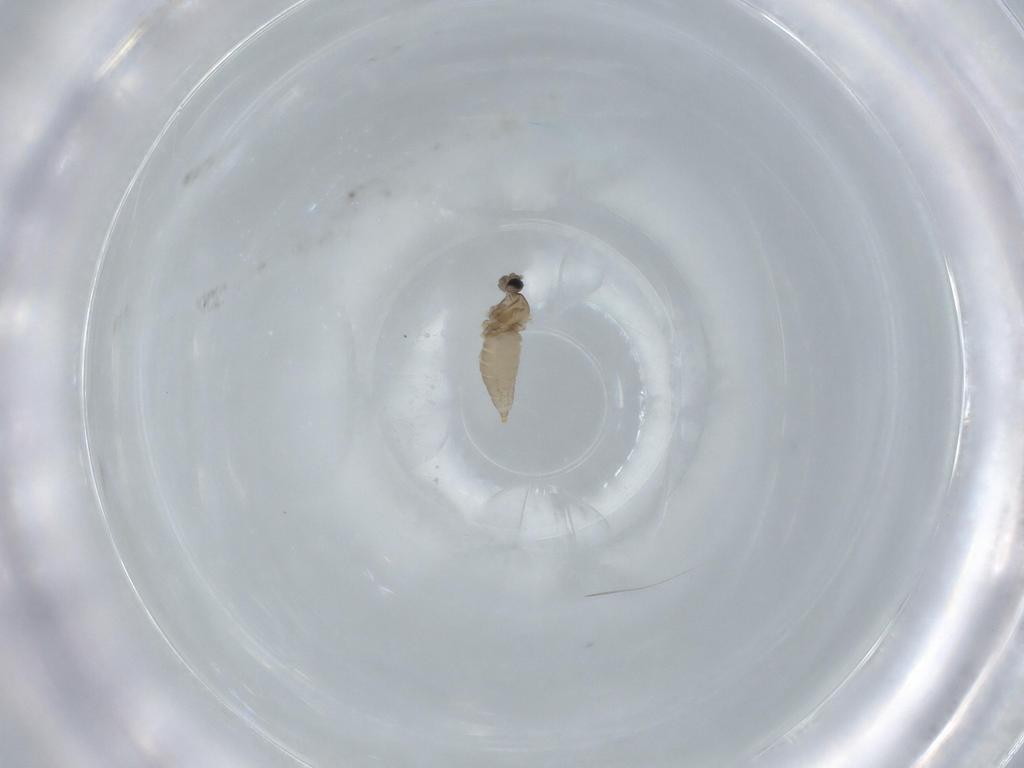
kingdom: Animalia
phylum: Arthropoda
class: Insecta
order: Diptera
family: Cecidomyiidae
